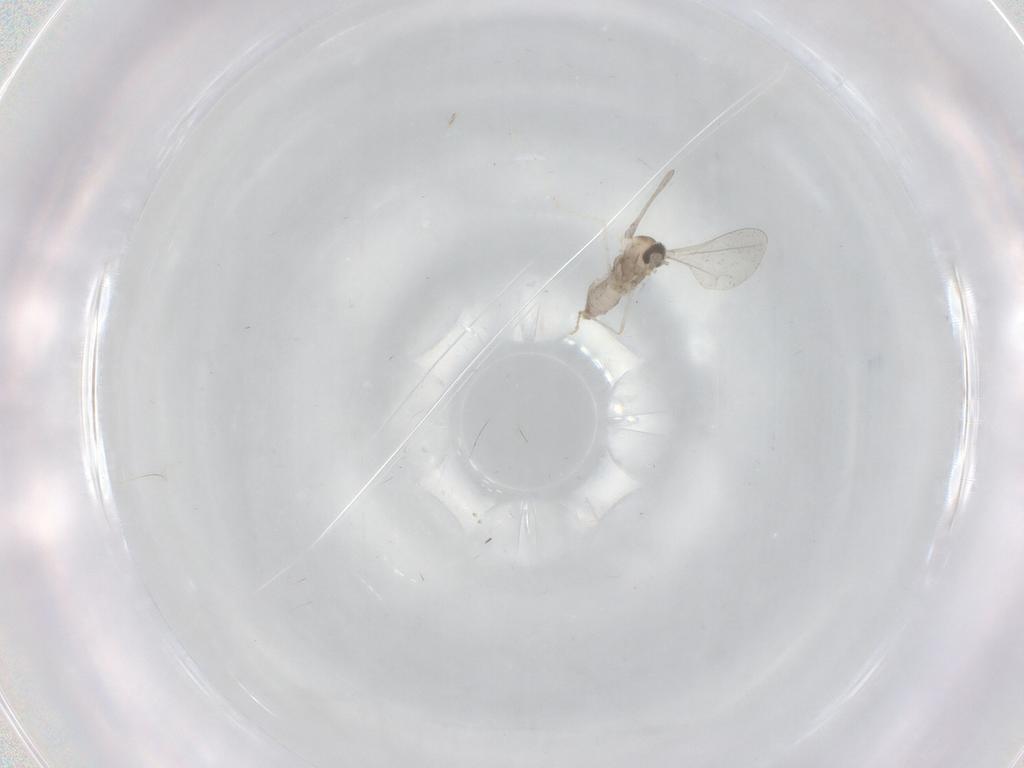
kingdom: Animalia
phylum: Arthropoda
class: Insecta
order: Diptera
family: Cecidomyiidae
